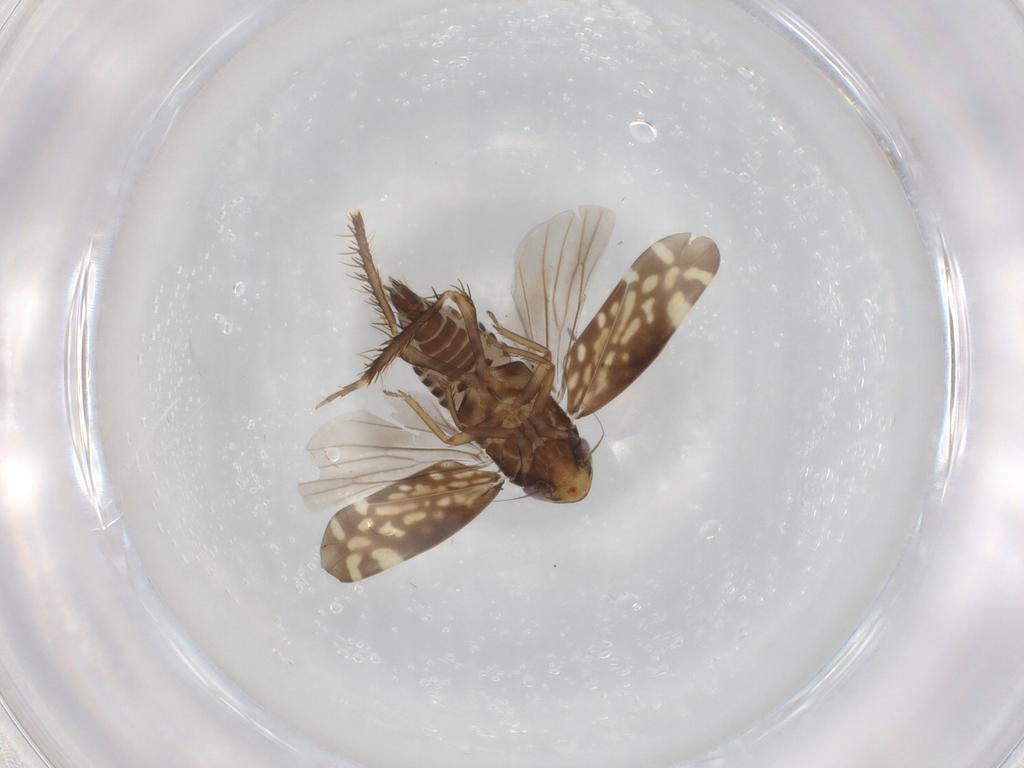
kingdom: Animalia
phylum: Arthropoda
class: Insecta
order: Hemiptera
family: Cicadellidae
